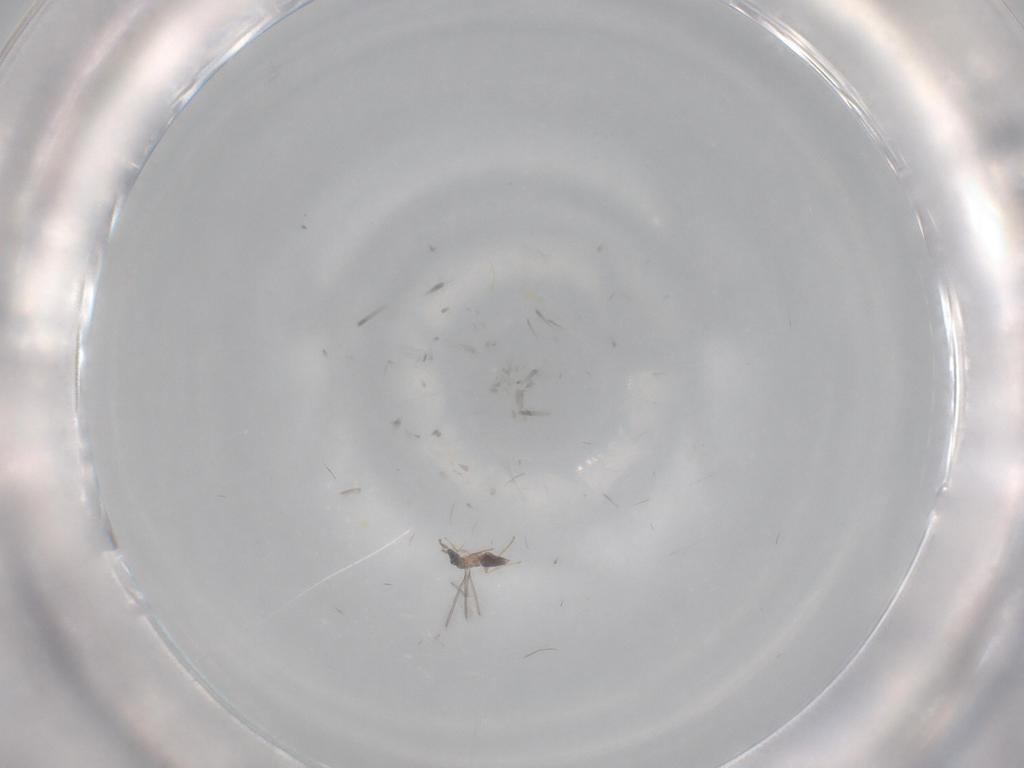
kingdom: Animalia
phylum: Arthropoda
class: Insecta
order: Hymenoptera
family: Mymaridae
